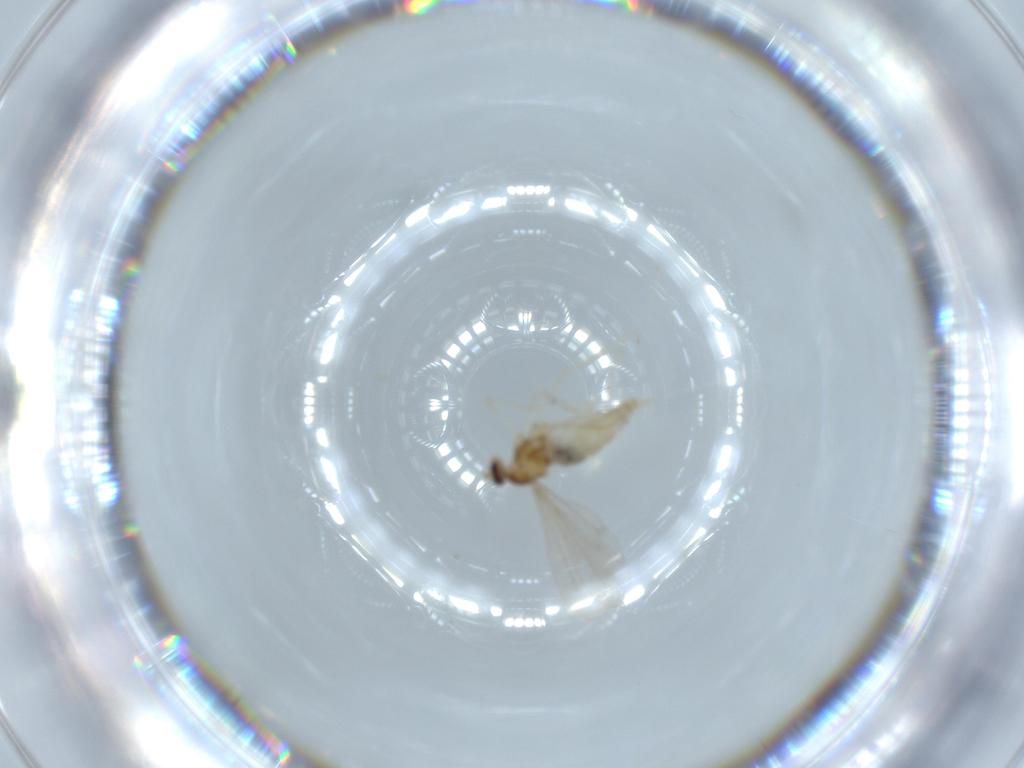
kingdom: Animalia
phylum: Arthropoda
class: Insecta
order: Diptera
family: Cecidomyiidae
